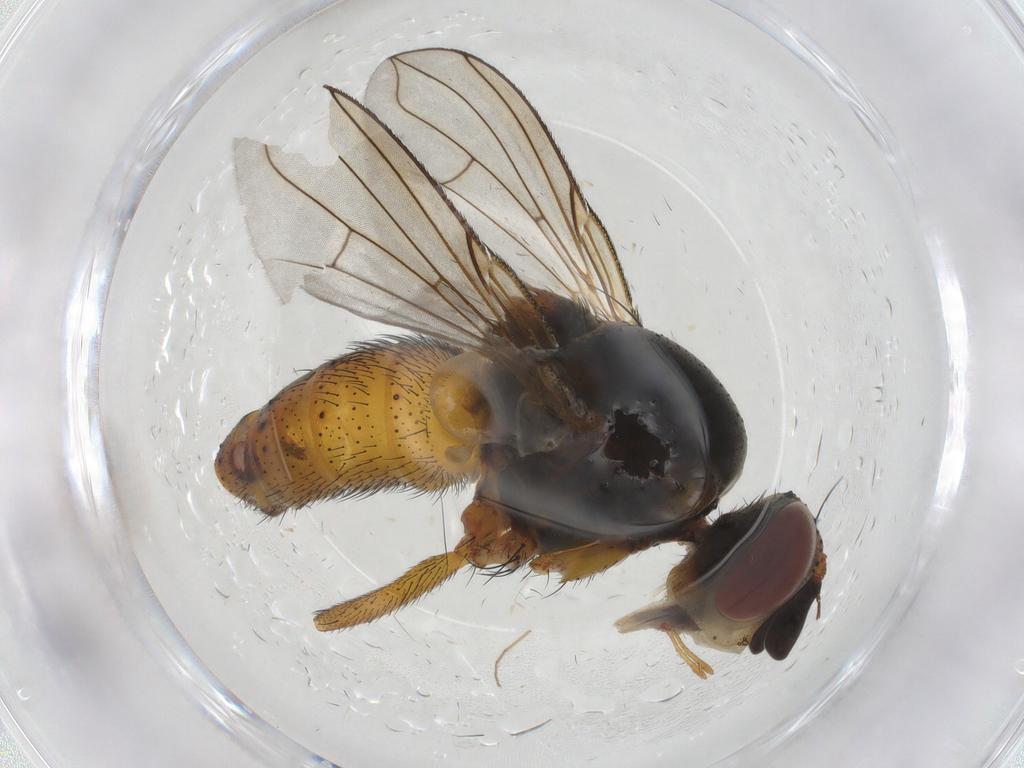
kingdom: Animalia
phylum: Arthropoda
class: Insecta
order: Diptera
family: Tachinidae
